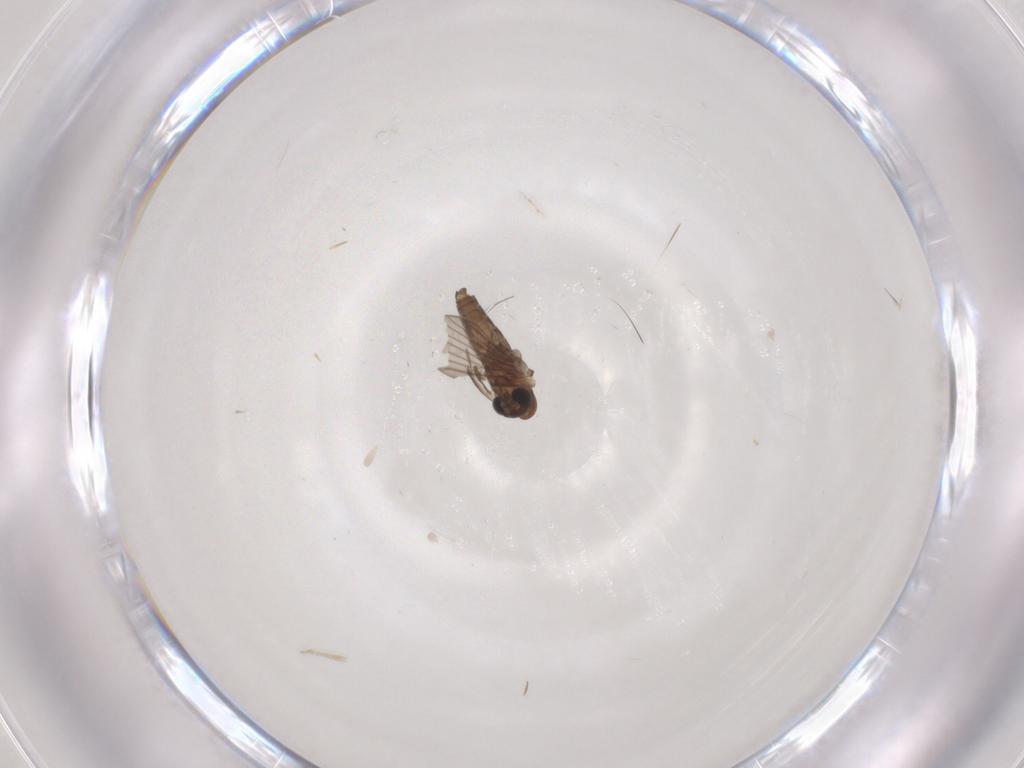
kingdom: Animalia
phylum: Arthropoda
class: Insecta
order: Diptera
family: Psychodidae
